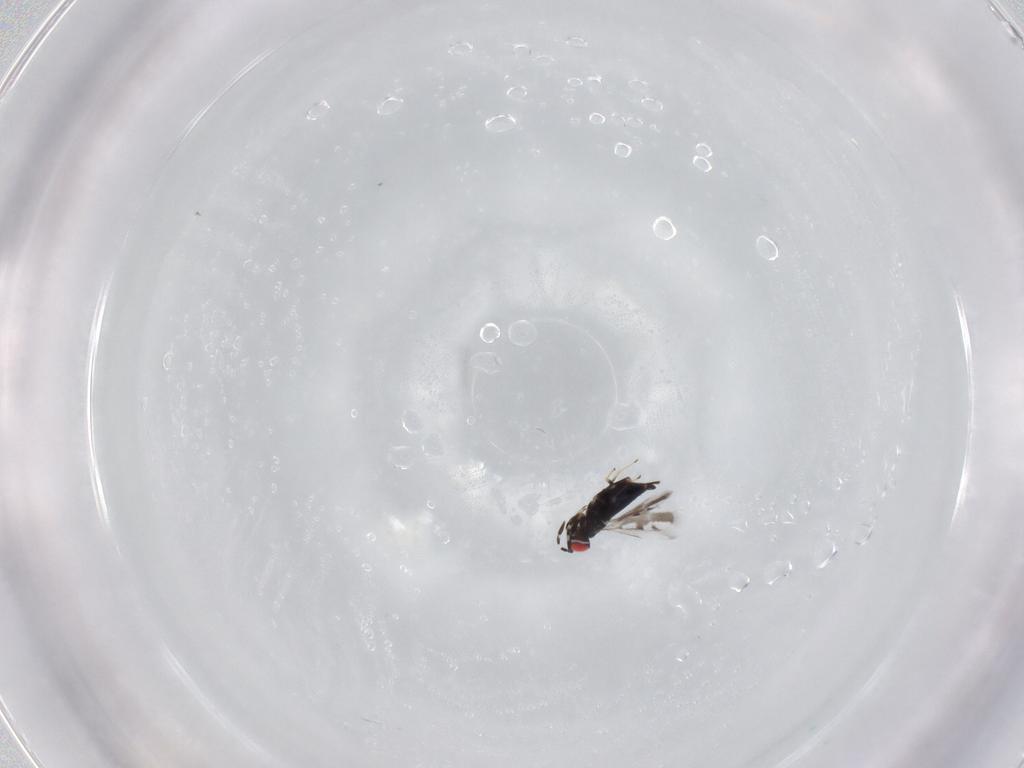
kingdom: Animalia
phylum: Arthropoda
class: Insecta
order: Hymenoptera
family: Azotidae
